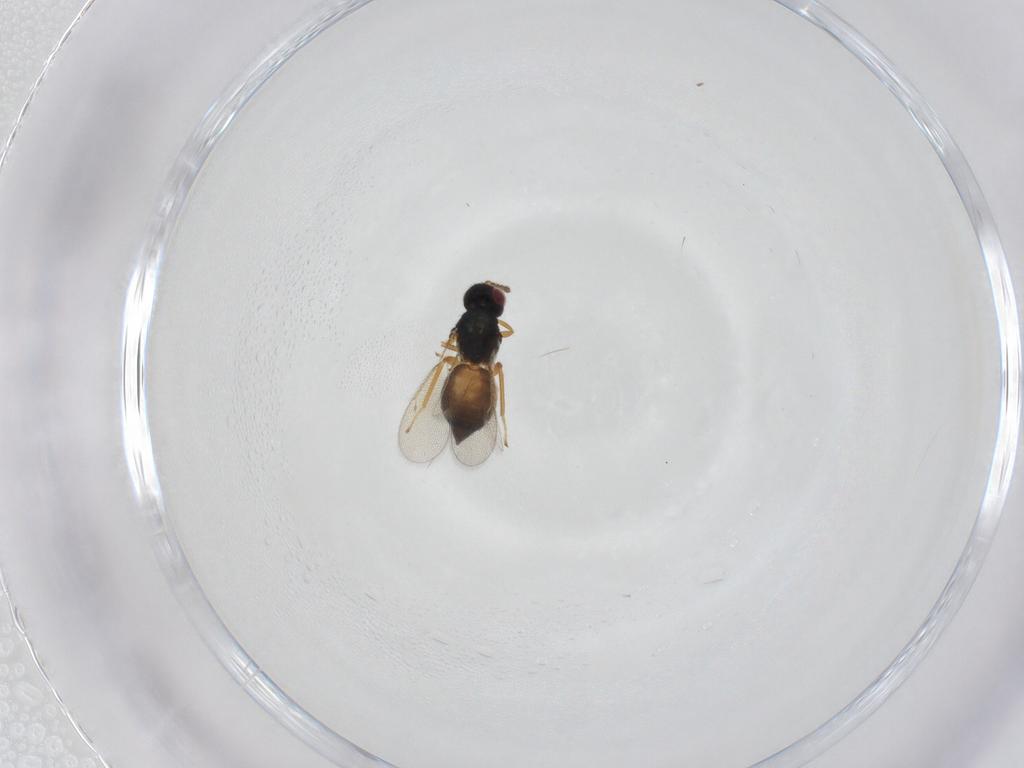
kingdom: Animalia
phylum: Arthropoda
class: Insecta
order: Hymenoptera
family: Eulophidae
